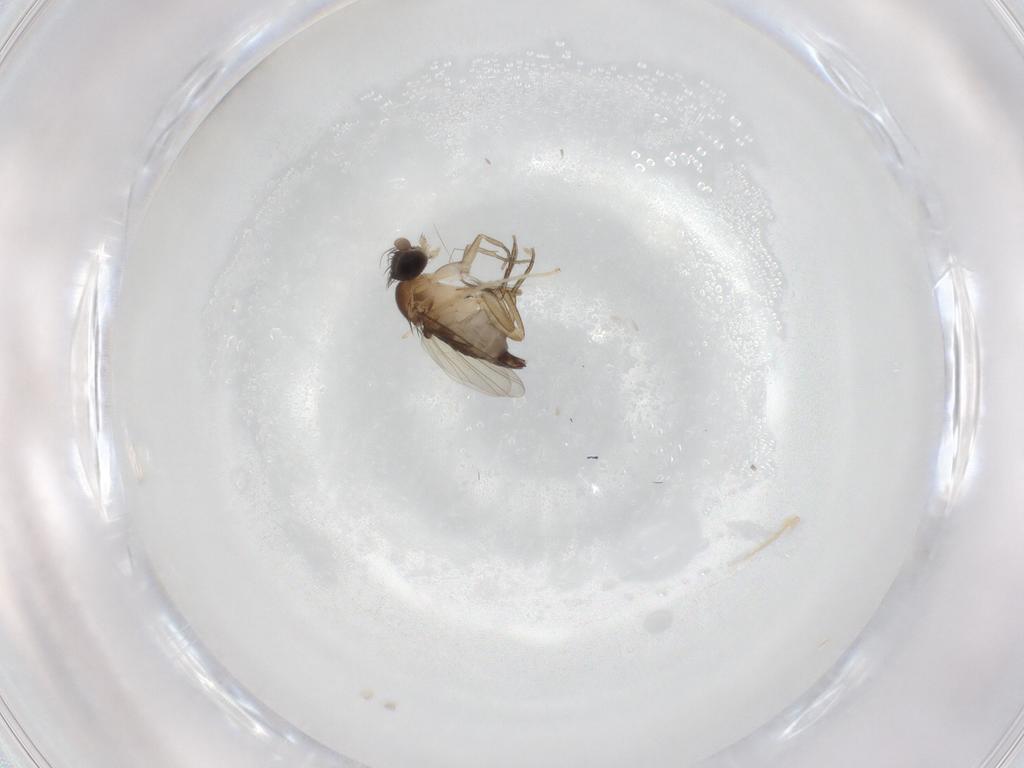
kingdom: Animalia
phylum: Arthropoda
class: Insecta
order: Diptera
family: Phoridae
